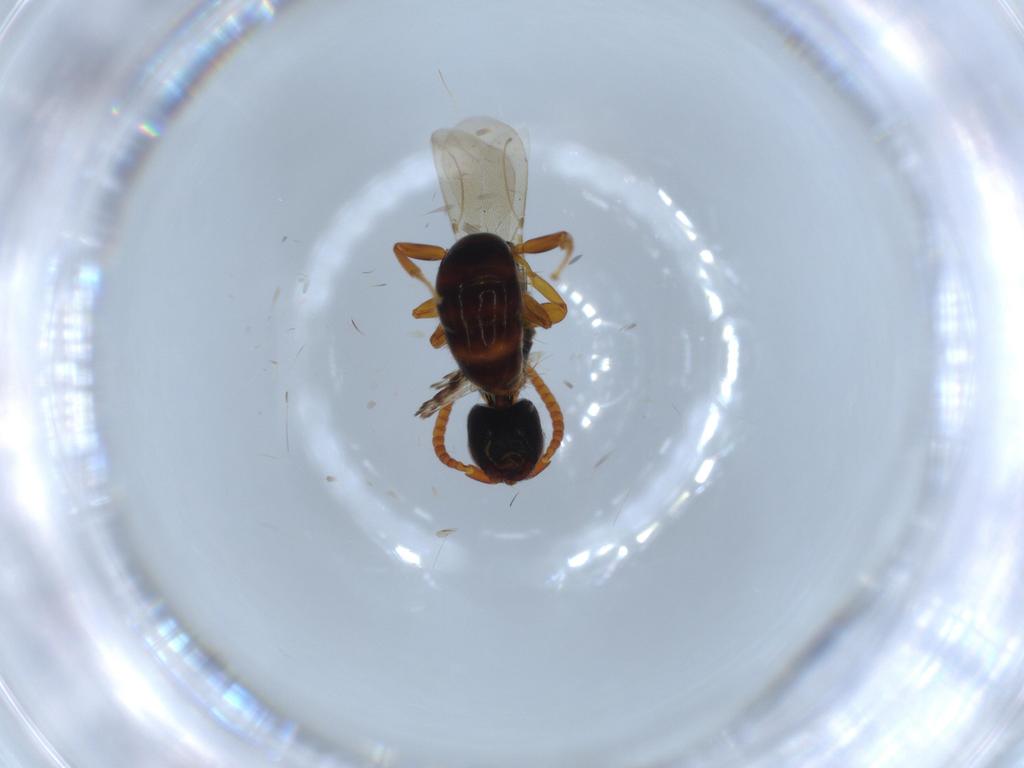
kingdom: Animalia
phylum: Arthropoda
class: Insecta
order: Hymenoptera
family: Bethylidae
